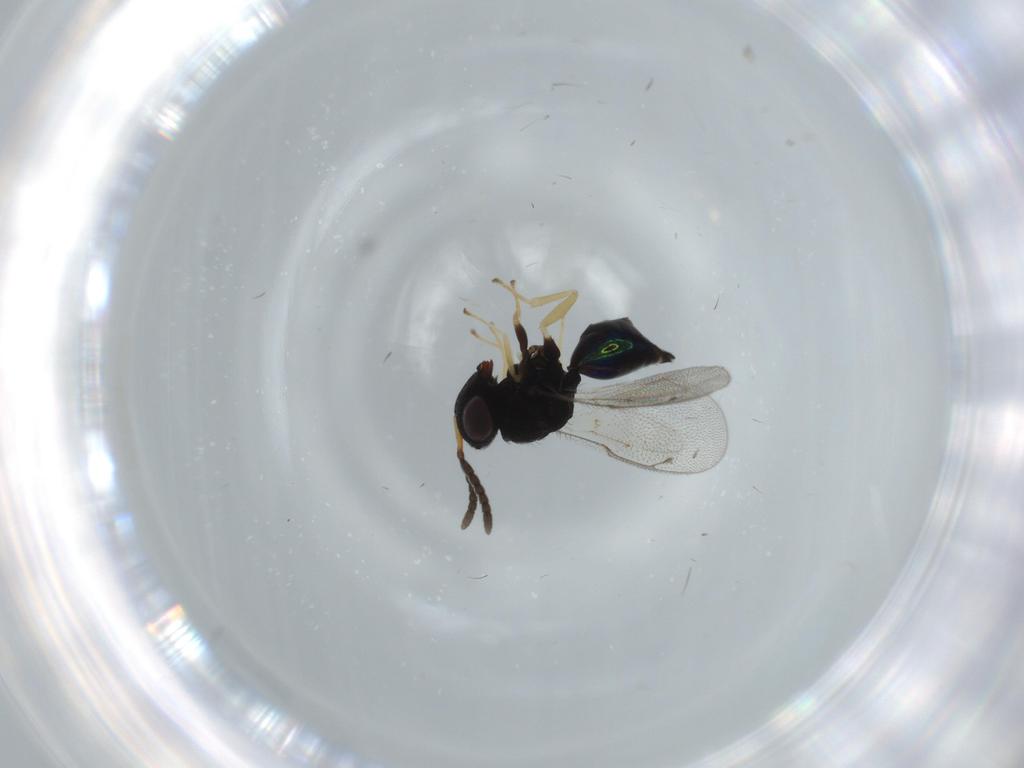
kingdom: Animalia
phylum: Arthropoda
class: Insecta
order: Hymenoptera
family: Pteromalidae
